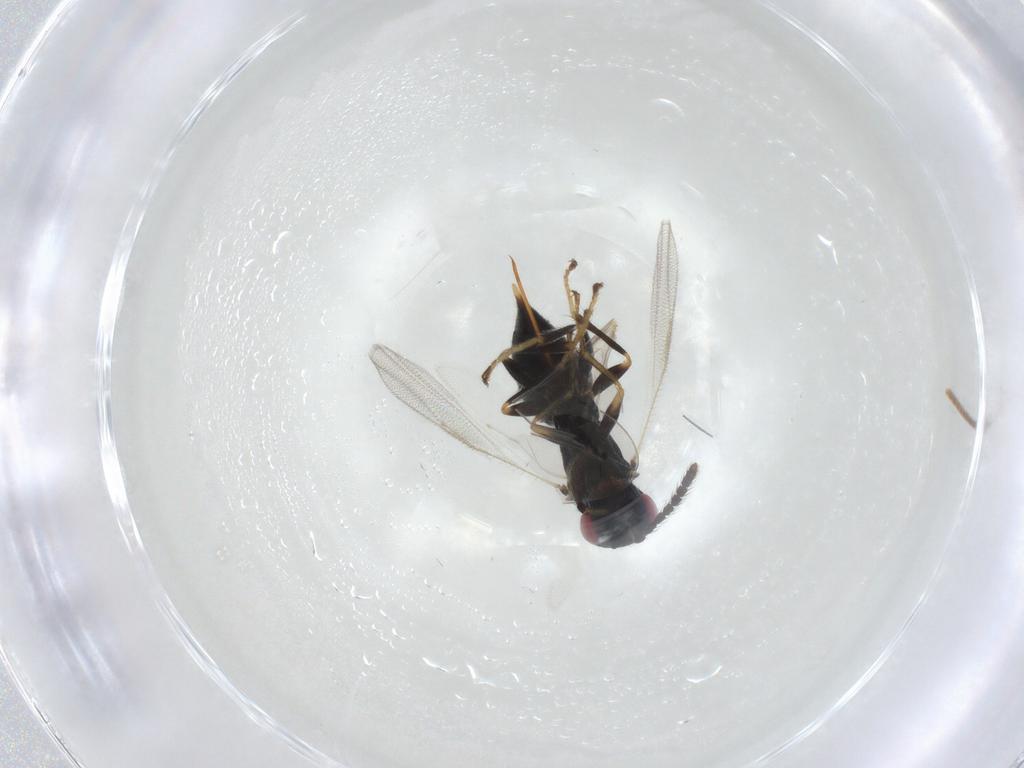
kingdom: Animalia
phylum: Arthropoda
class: Insecta
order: Hymenoptera
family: Eurytomidae
